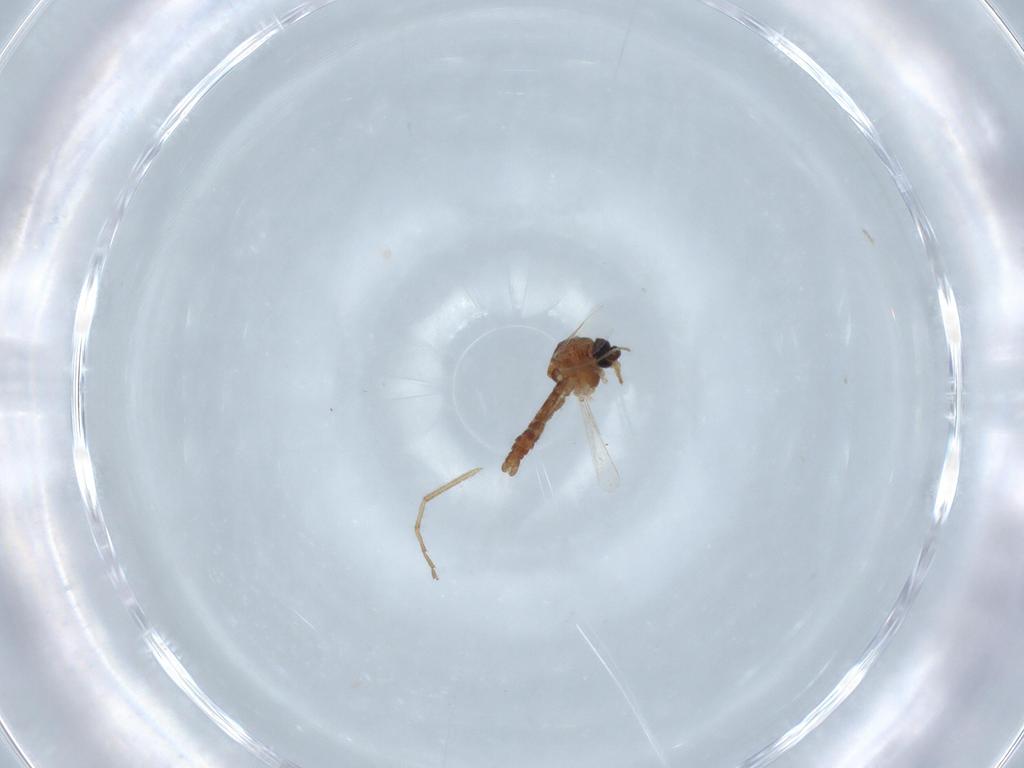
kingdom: Animalia
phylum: Arthropoda
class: Insecta
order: Diptera
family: Ceratopogonidae
